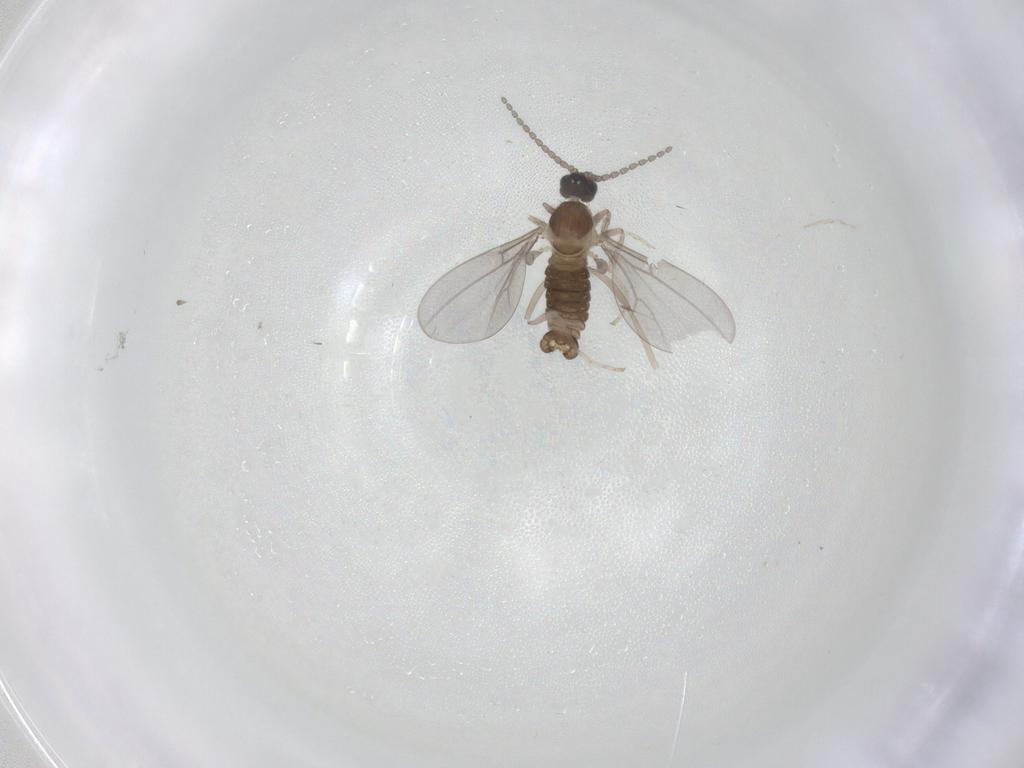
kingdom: Animalia
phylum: Arthropoda
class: Insecta
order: Diptera
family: Cecidomyiidae
